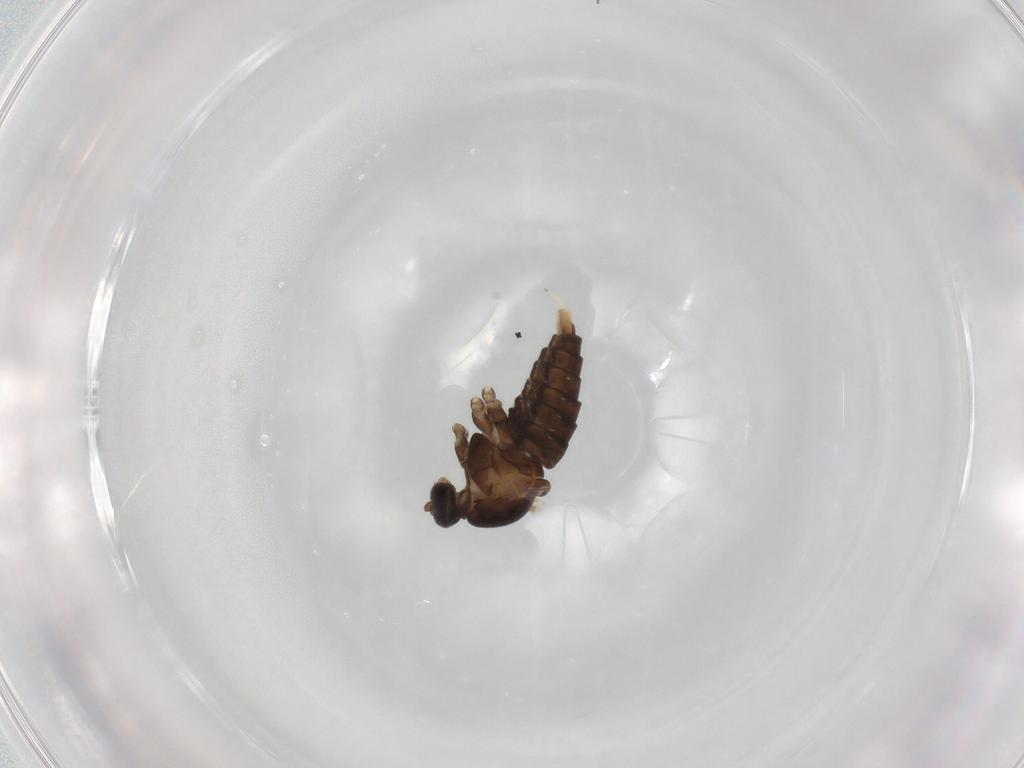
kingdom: Animalia
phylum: Arthropoda
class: Insecta
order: Diptera
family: Cecidomyiidae
